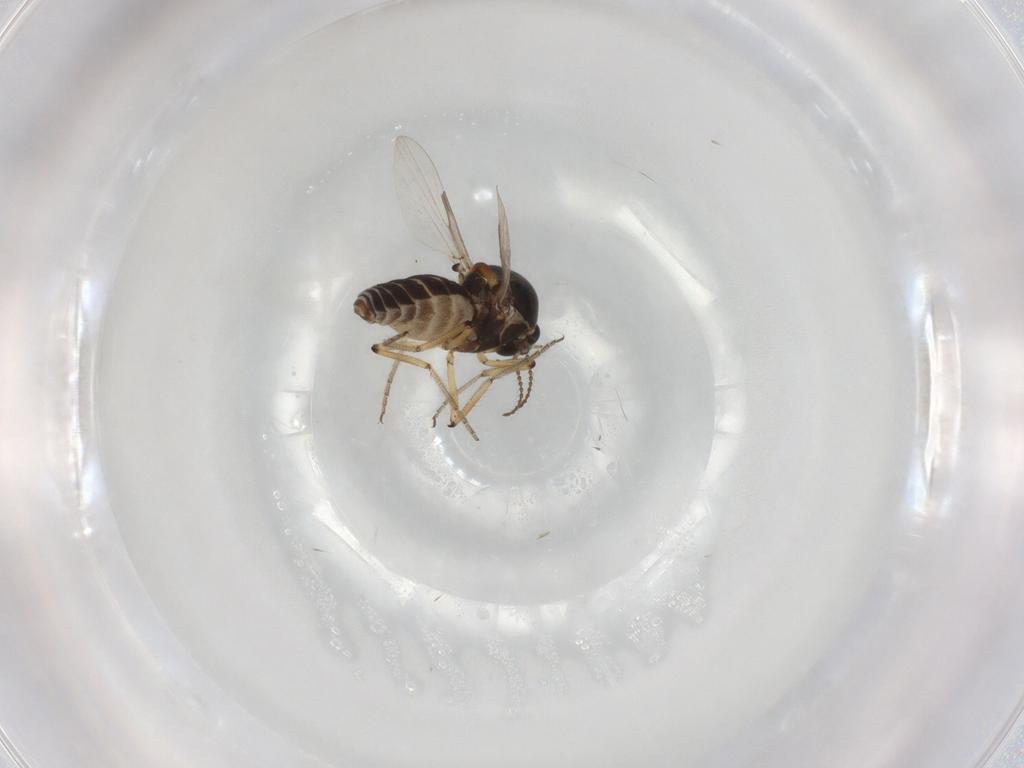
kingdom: Animalia
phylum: Arthropoda
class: Insecta
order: Diptera
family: Ceratopogonidae
